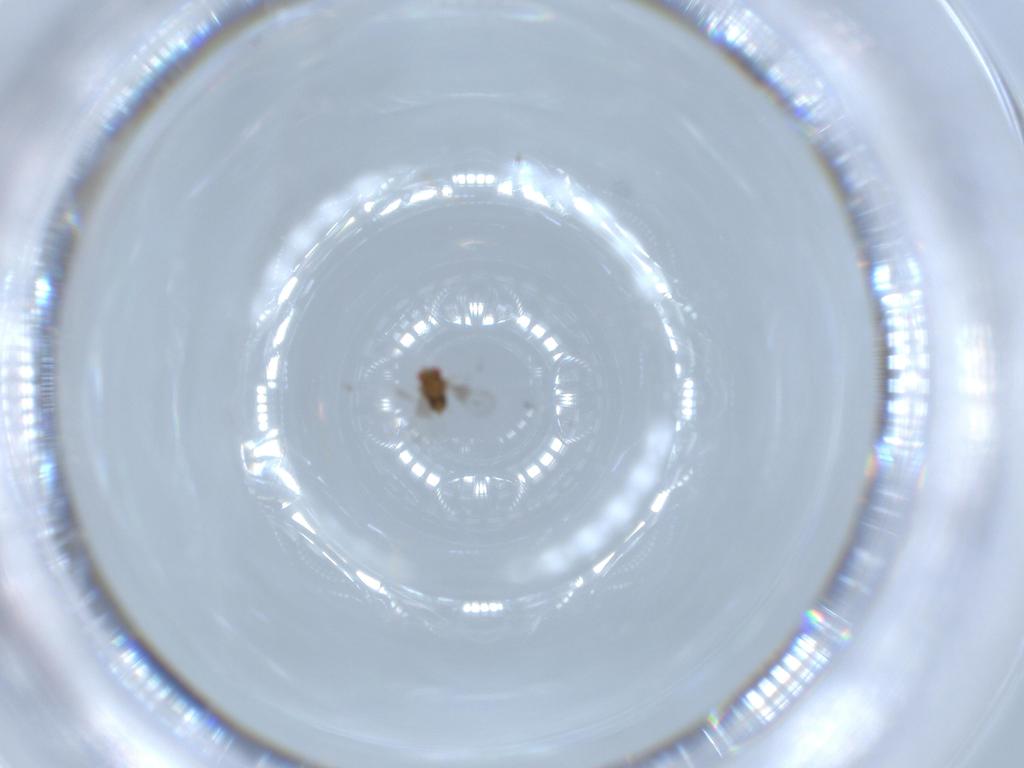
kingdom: Animalia
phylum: Arthropoda
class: Insecta
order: Hymenoptera
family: Trichogrammatidae
